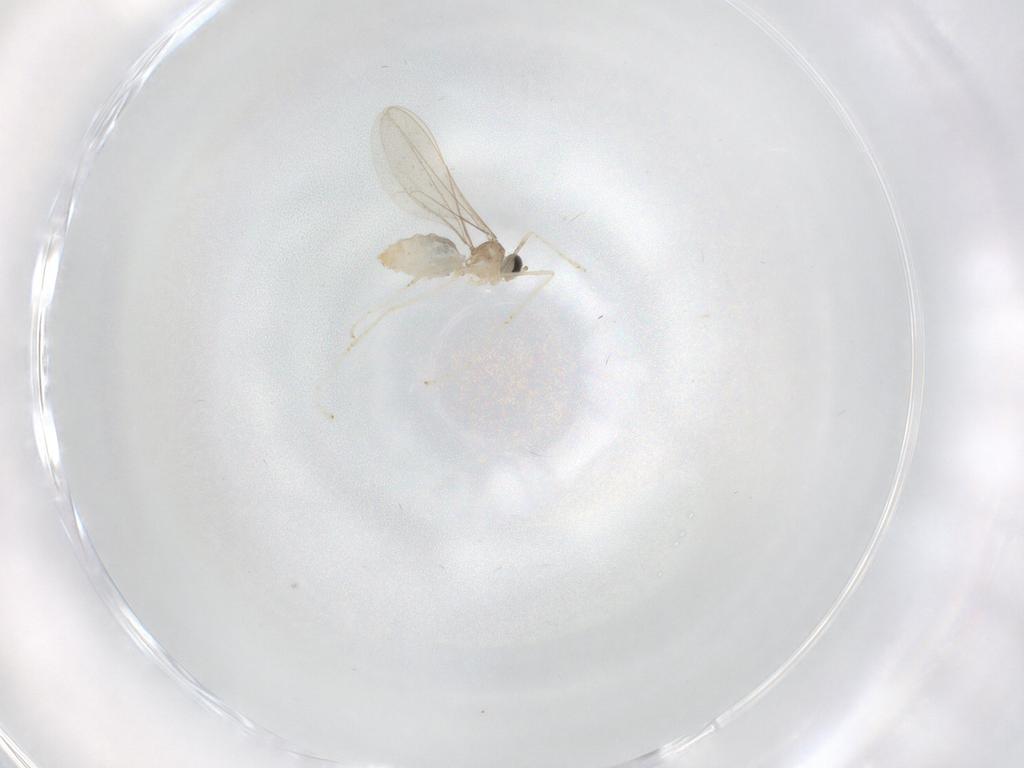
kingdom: Animalia
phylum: Arthropoda
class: Insecta
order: Diptera
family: Cecidomyiidae
